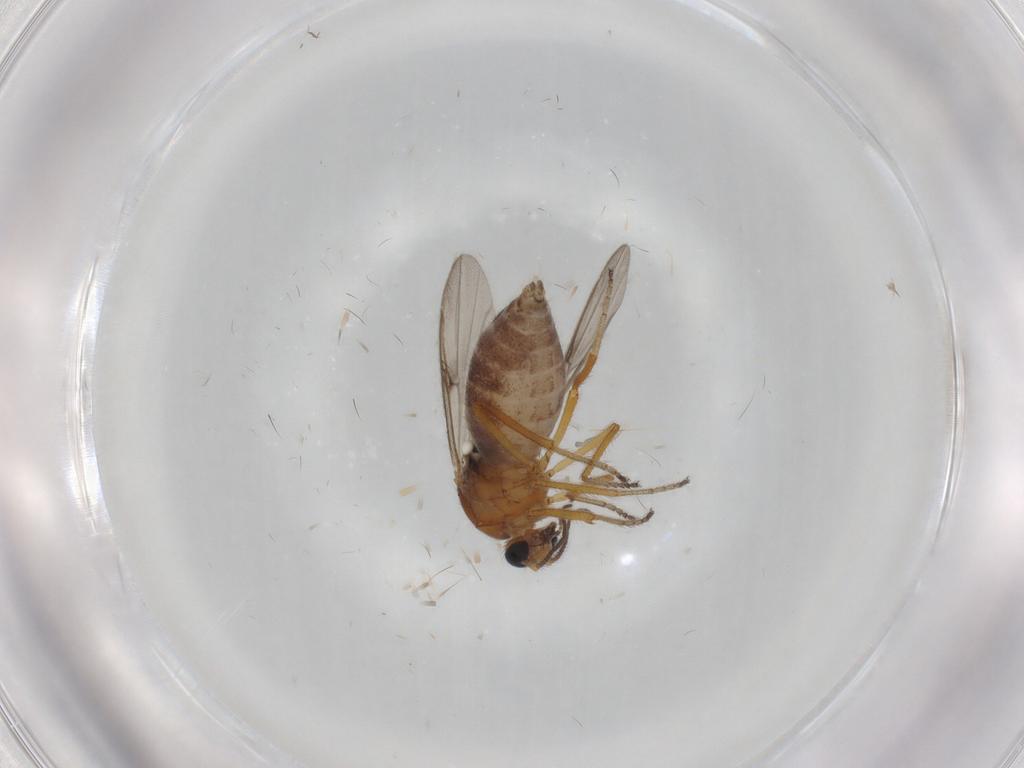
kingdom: Animalia
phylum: Arthropoda
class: Insecta
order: Diptera
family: Ceratopogonidae
